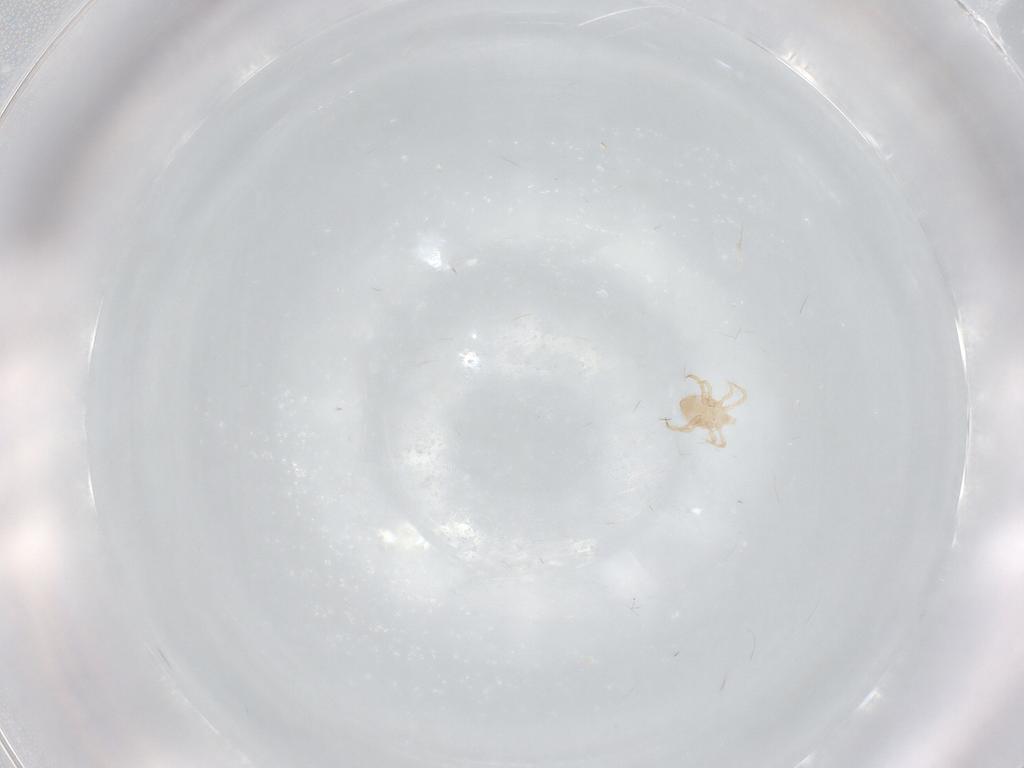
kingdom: Animalia
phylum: Arthropoda
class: Arachnida
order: Mesostigmata
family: Blattisociidae
